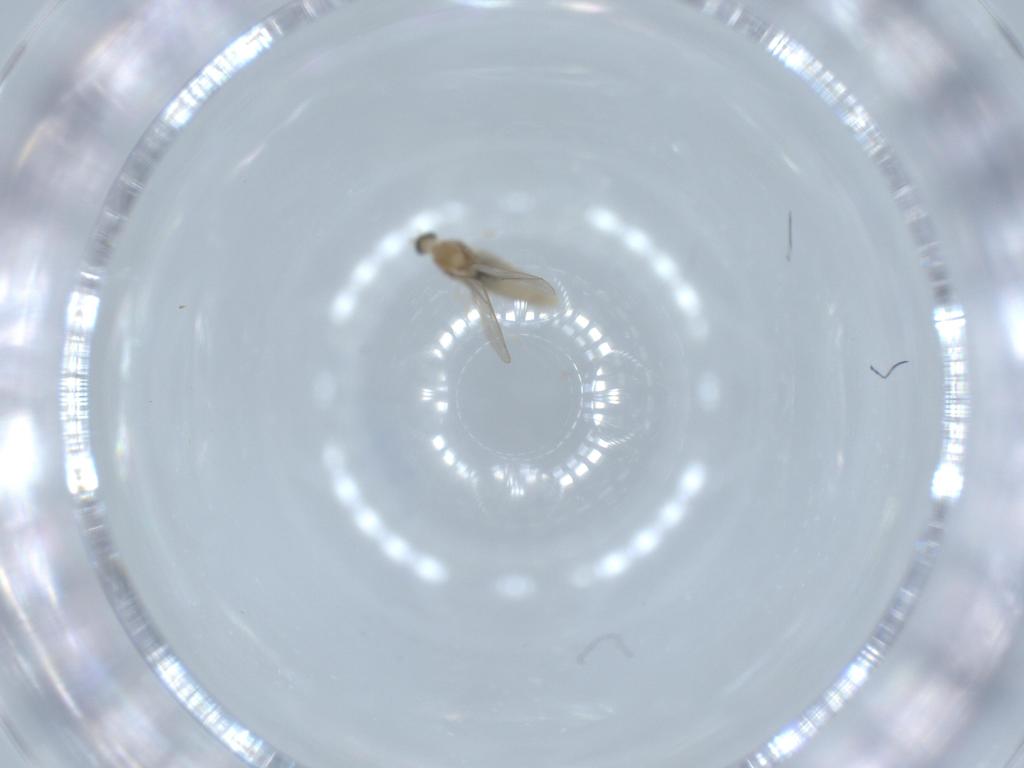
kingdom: Animalia
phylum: Arthropoda
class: Insecta
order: Diptera
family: Cecidomyiidae
